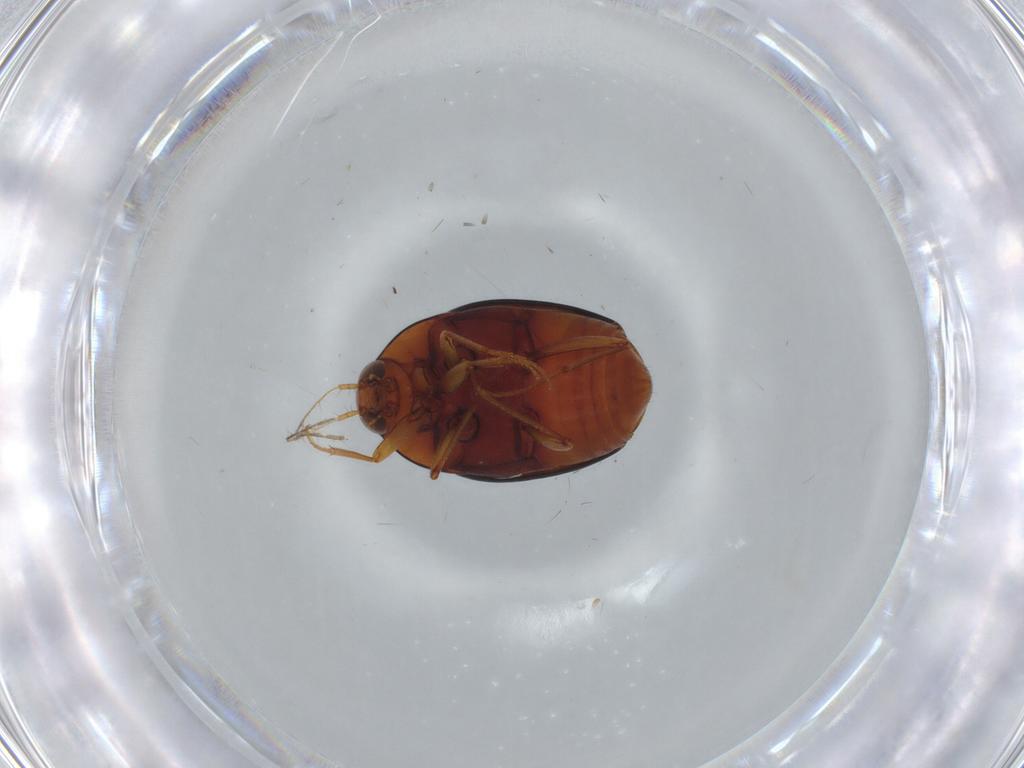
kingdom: Animalia
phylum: Arthropoda
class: Insecta
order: Coleoptera
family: Staphylinidae
